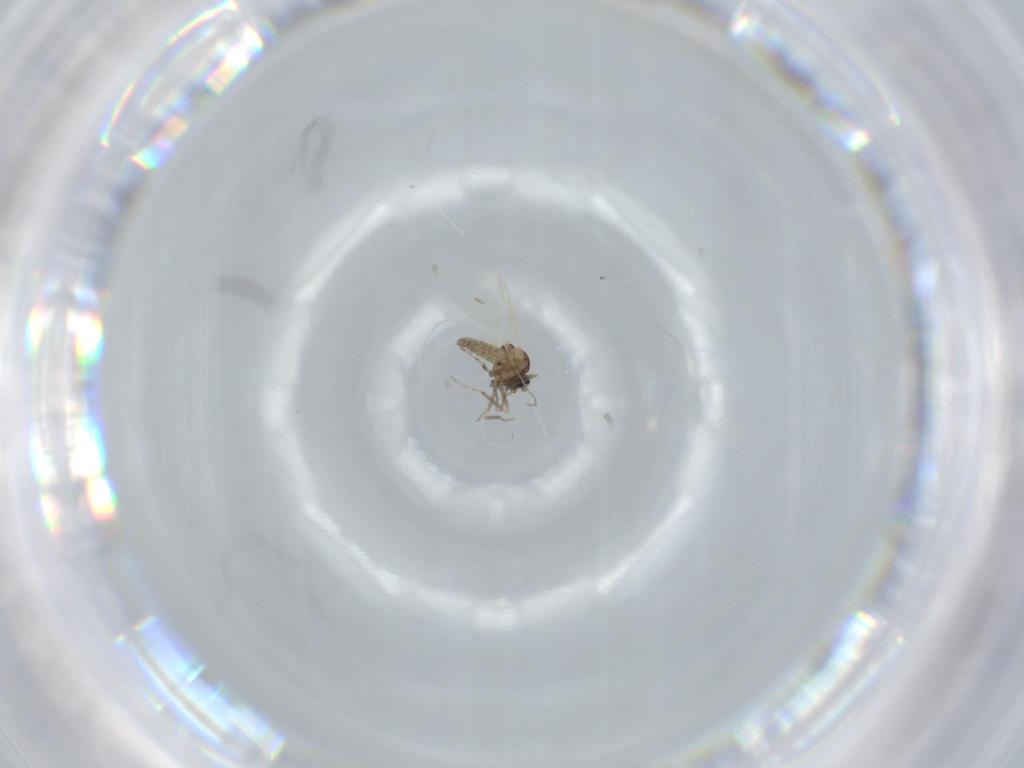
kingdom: Animalia
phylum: Arthropoda
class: Insecta
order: Diptera
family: Ceratopogonidae
